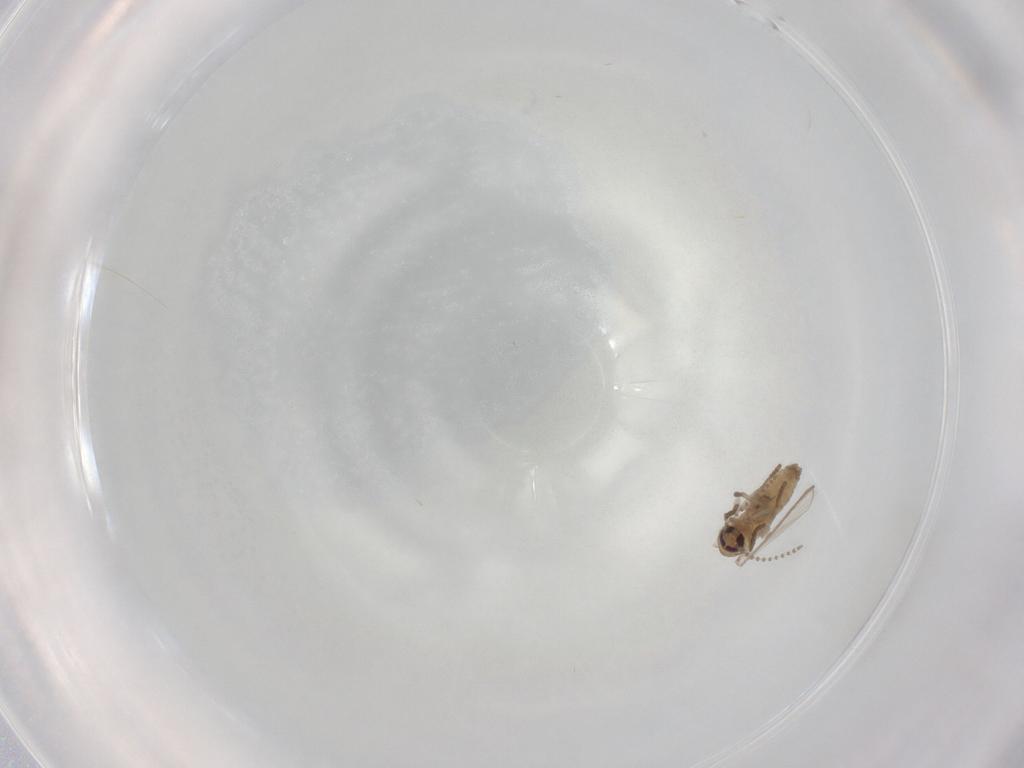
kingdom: Animalia
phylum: Arthropoda
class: Insecta
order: Diptera
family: Psychodidae
